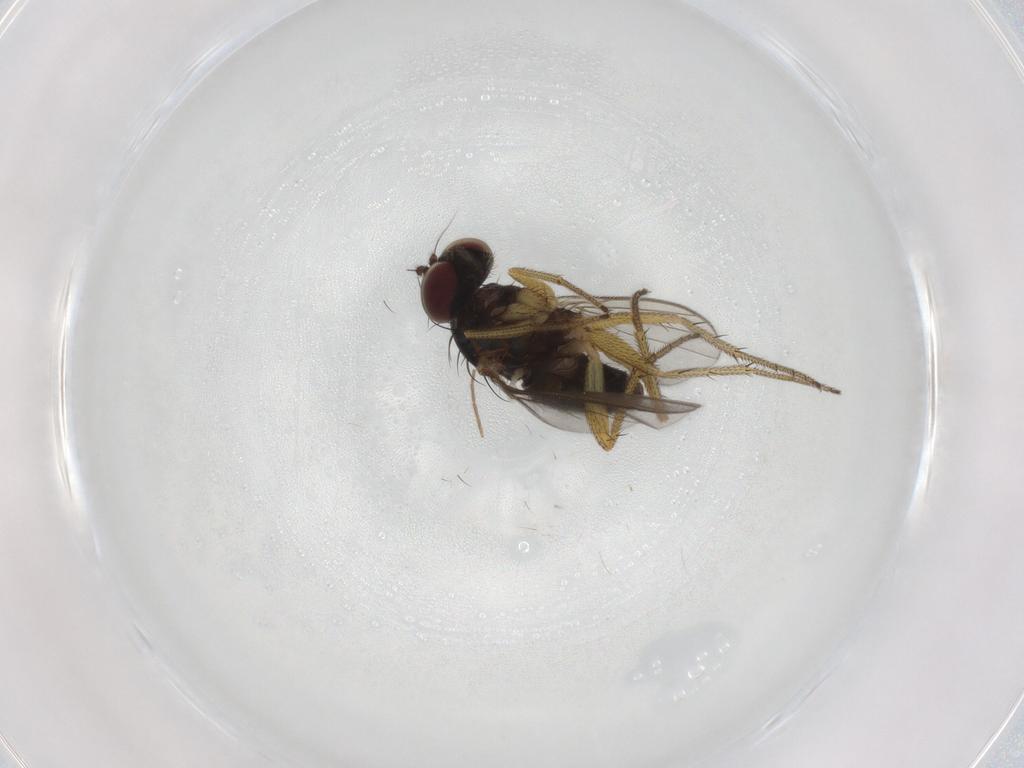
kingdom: Animalia
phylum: Arthropoda
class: Insecta
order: Diptera
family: Dolichopodidae
